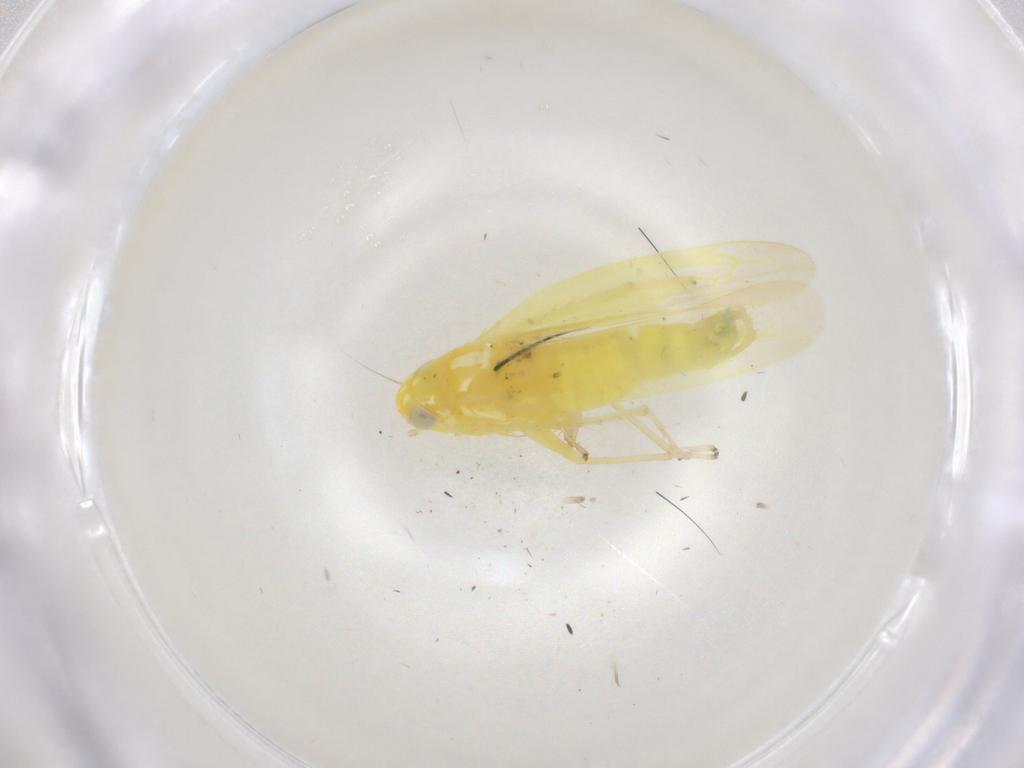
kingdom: Animalia
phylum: Arthropoda
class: Insecta
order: Hemiptera
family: Cicadellidae
